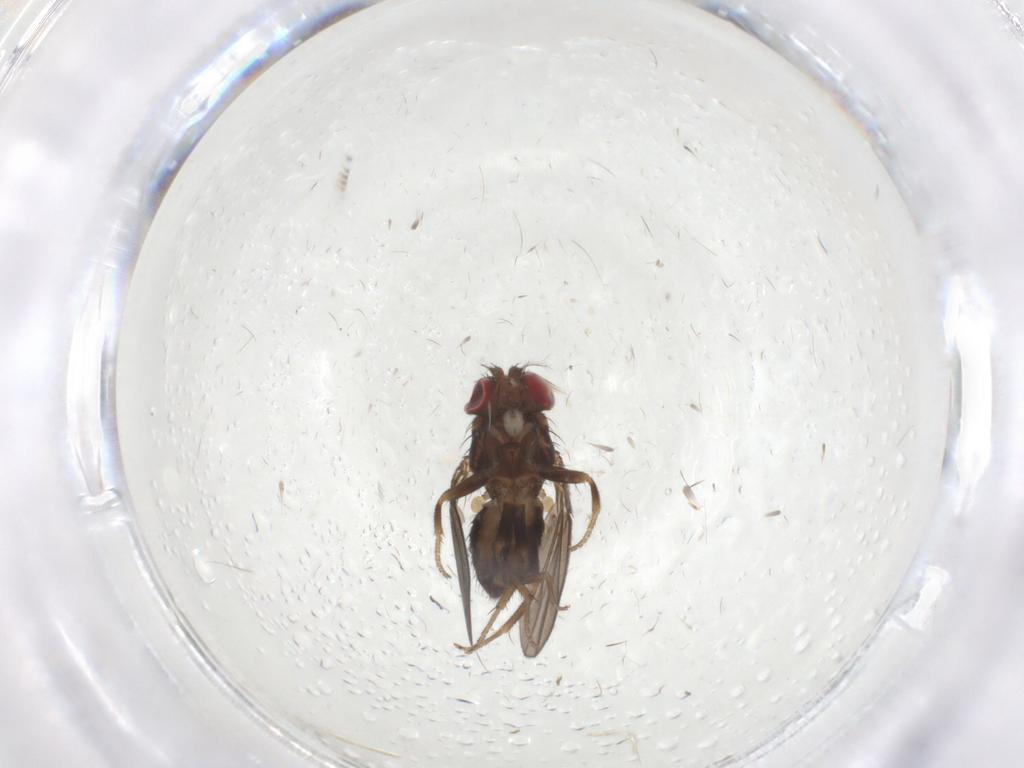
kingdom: Animalia
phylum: Arthropoda
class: Insecta
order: Diptera
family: Drosophilidae
